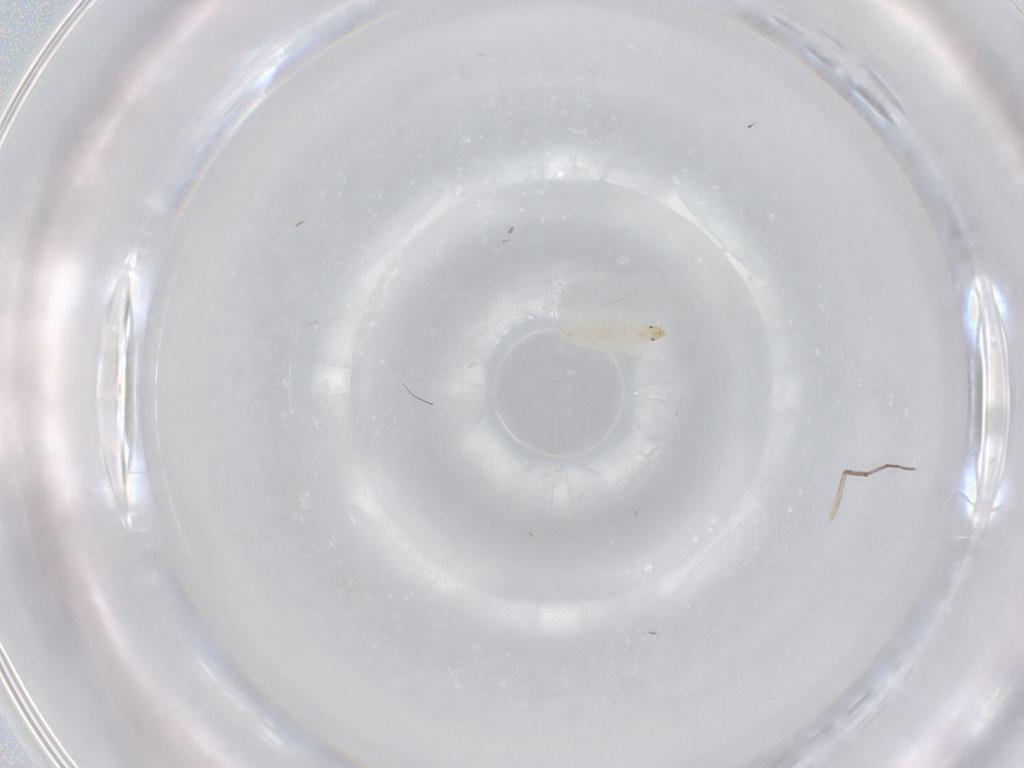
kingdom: Animalia
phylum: Arthropoda
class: Insecta
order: Diptera
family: Chironomidae
